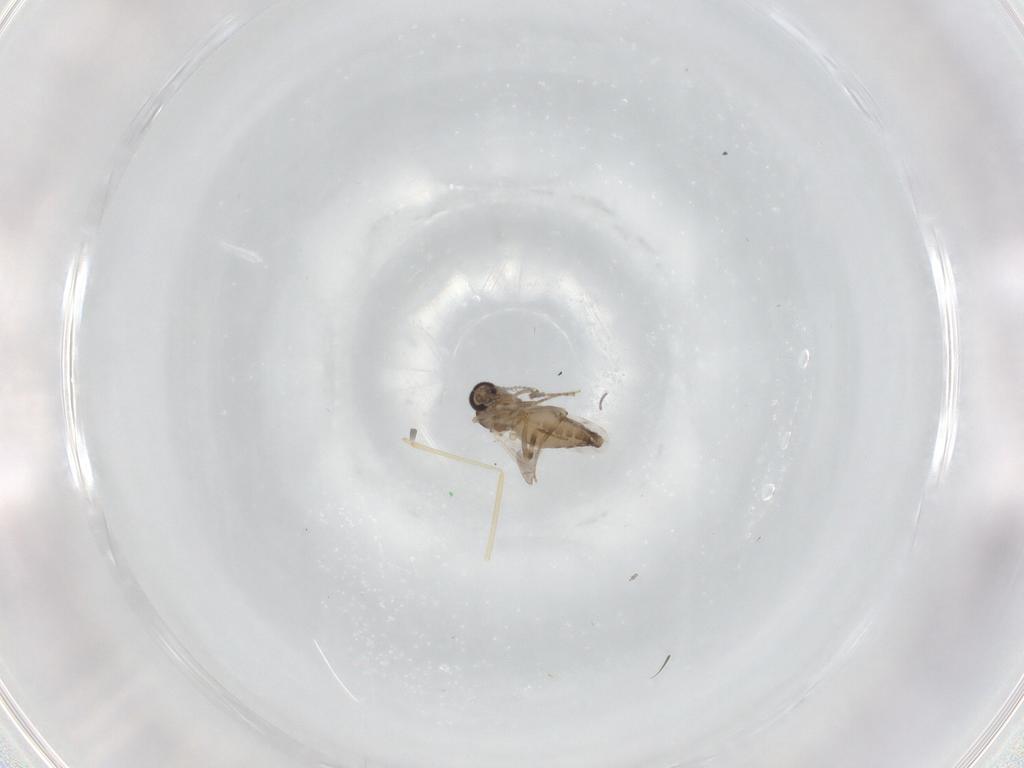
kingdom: Animalia
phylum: Arthropoda
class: Insecta
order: Diptera
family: Ceratopogonidae
